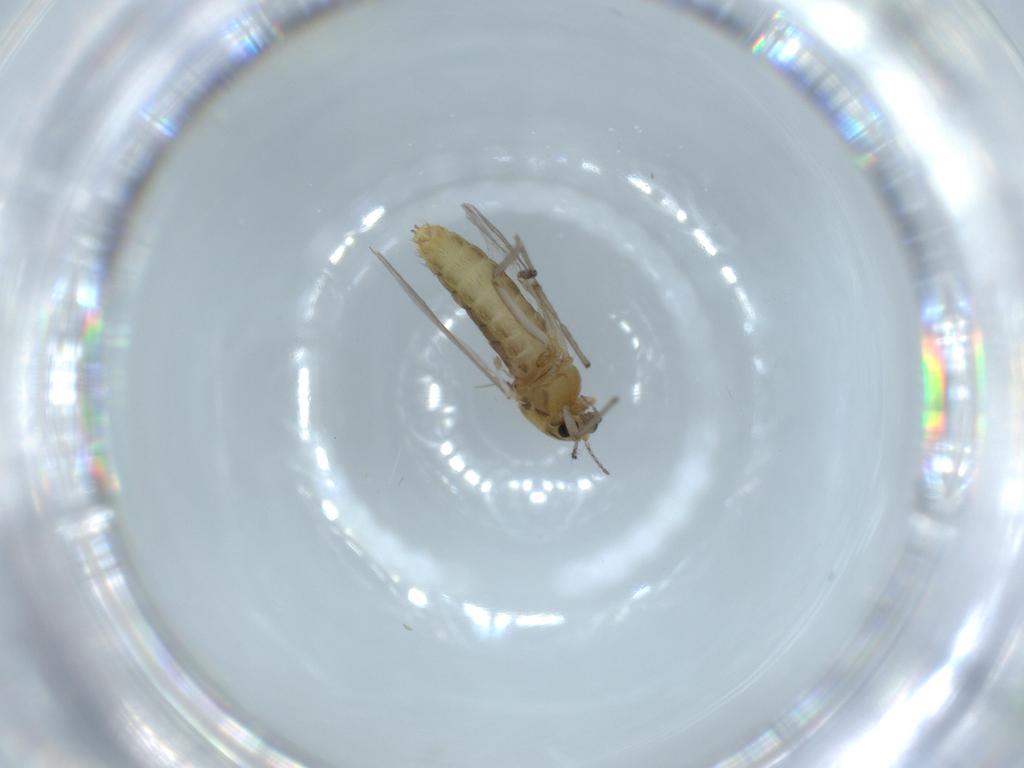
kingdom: Animalia
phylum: Arthropoda
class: Insecta
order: Diptera
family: Chironomidae
